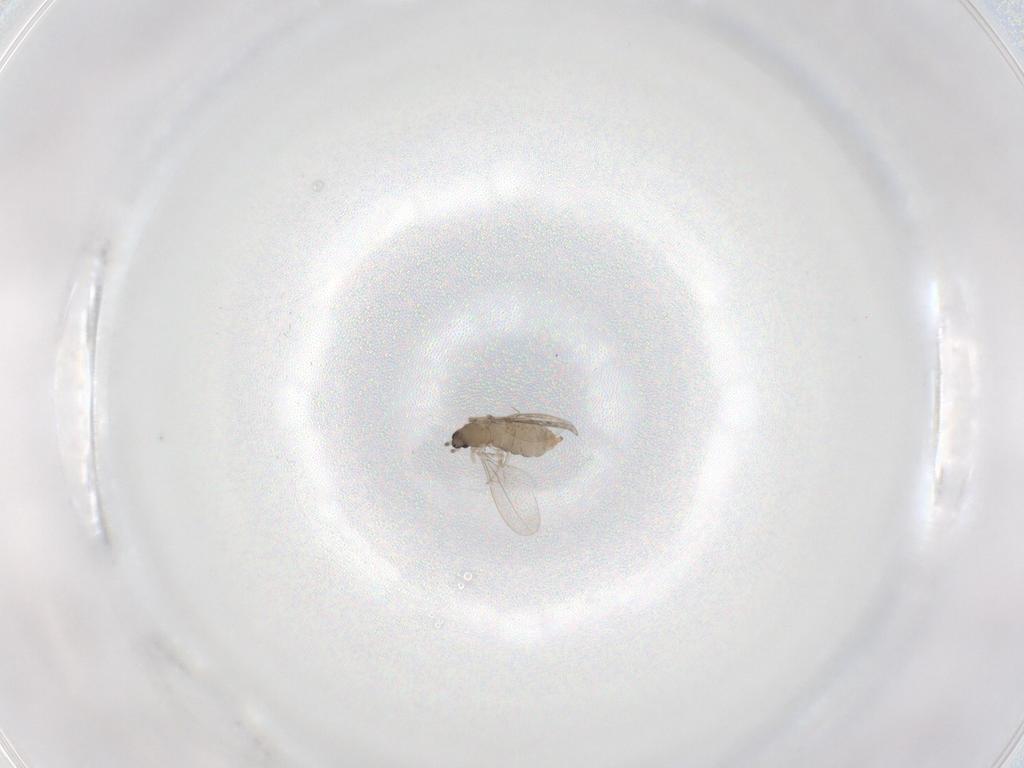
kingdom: Animalia
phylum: Arthropoda
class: Insecta
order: Diptera
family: Cecidomyiidae
